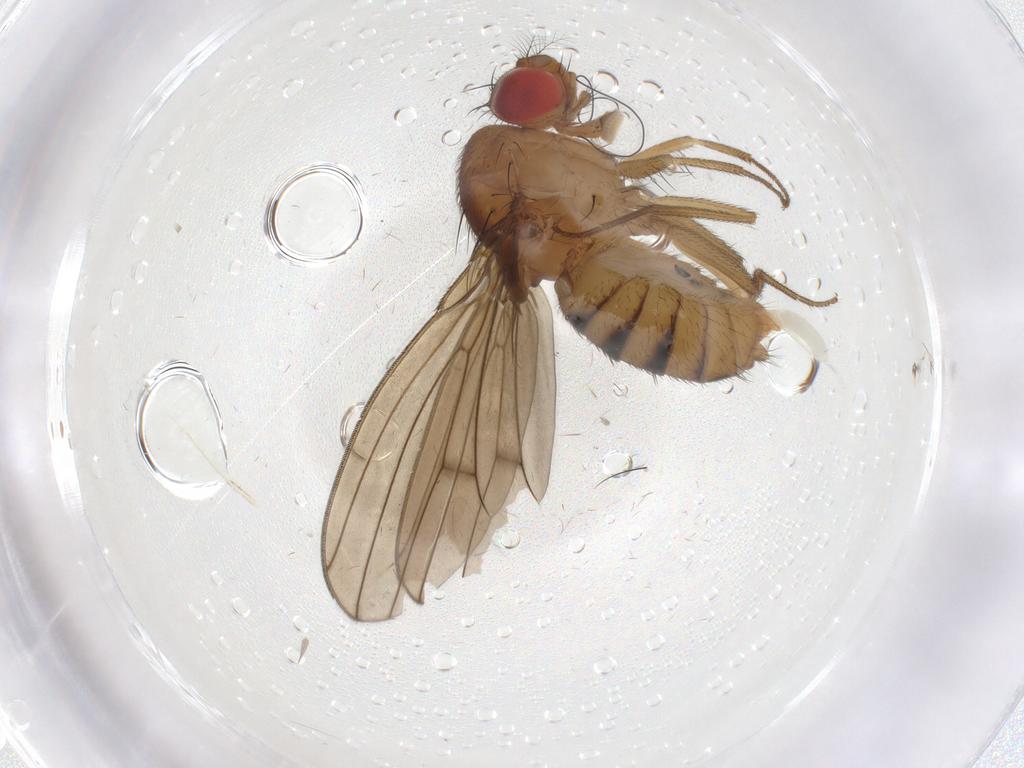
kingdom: Animalia
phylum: Arthropoda
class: Insecta
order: Diptera
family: Drosophilidae
